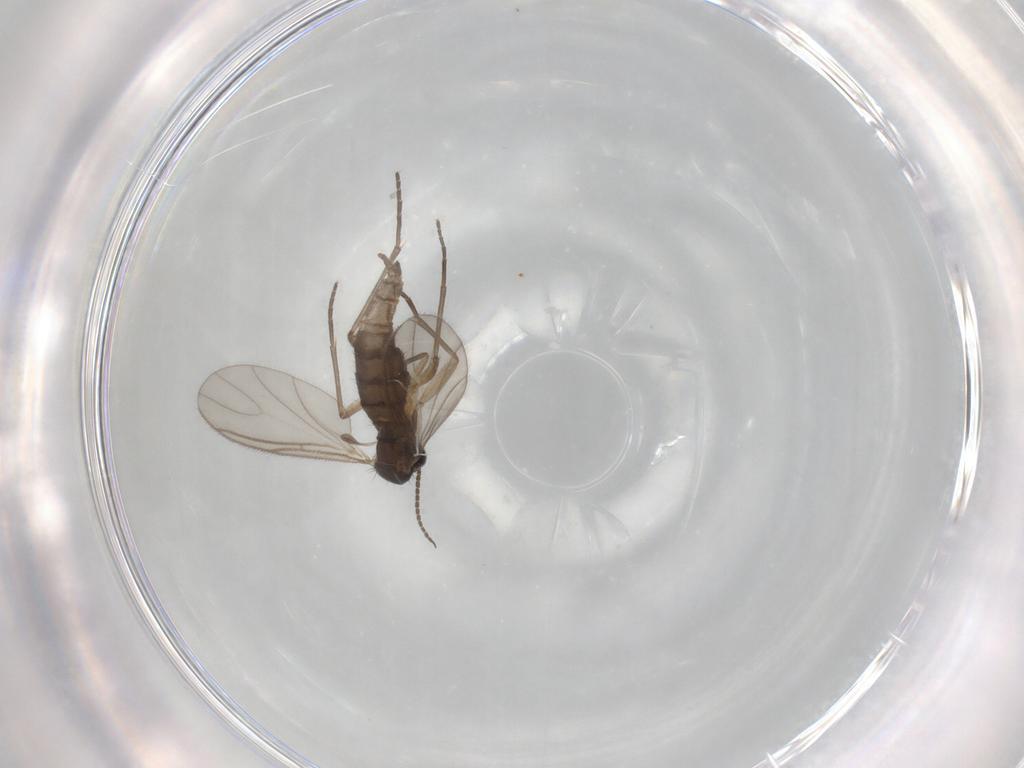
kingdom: Animalia
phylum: Arthropoda
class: Insecta
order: Diptera
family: Sciaridae
